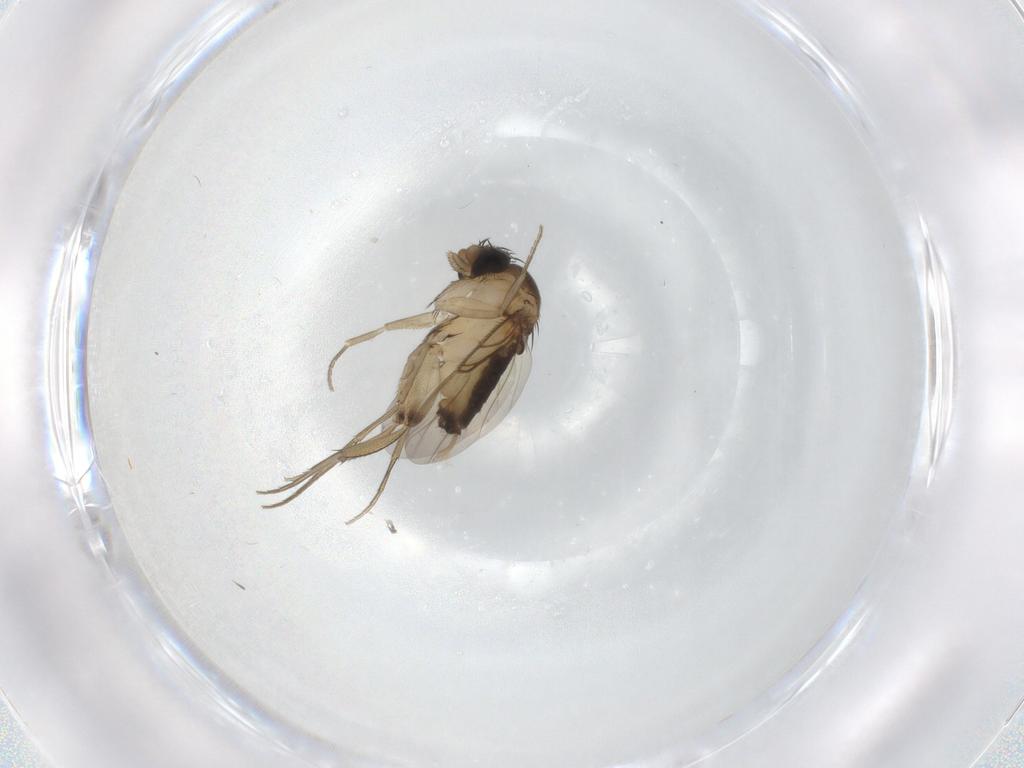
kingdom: Animalia
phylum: Arthropoda
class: Insecta
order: Diptera
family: Phoridae
